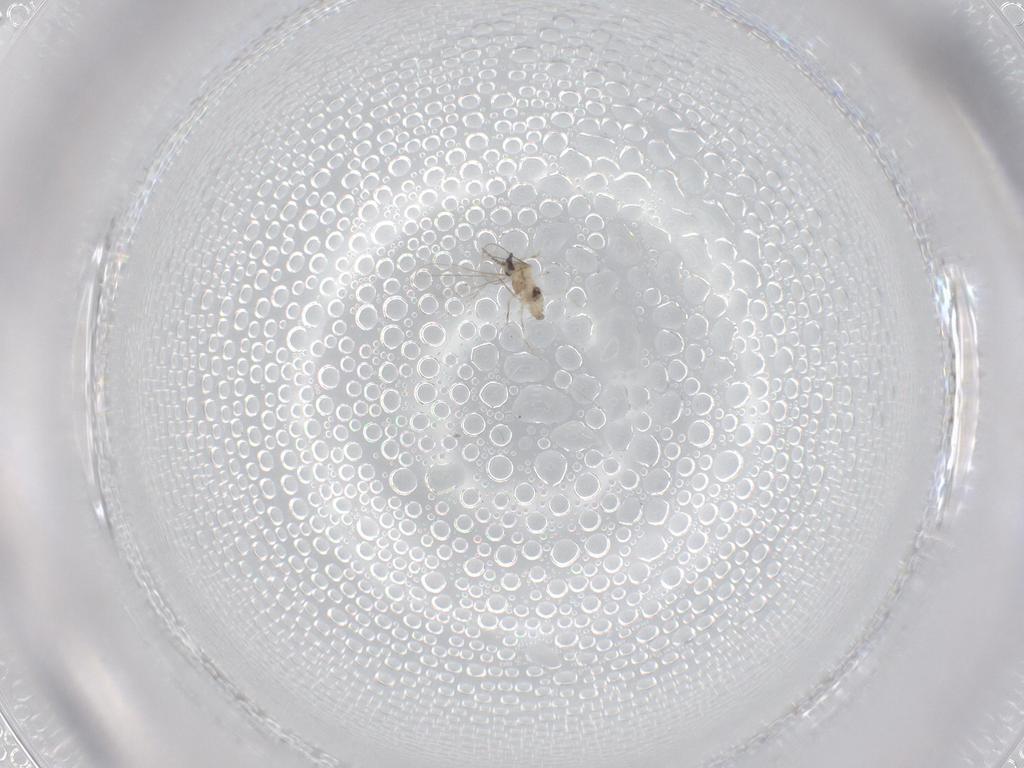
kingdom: Animalia
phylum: Arthropoda
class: Insecta
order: Diptera
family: Cecidomyiidae
